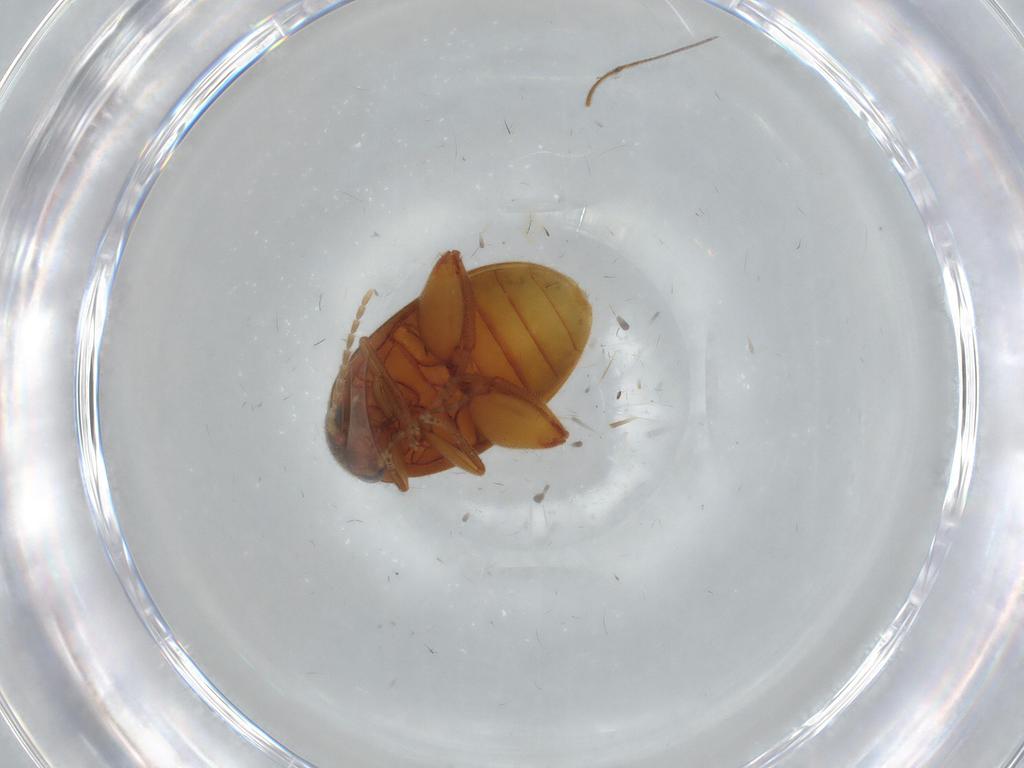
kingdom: Animalia
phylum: Arthropoda
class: Insecta
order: Coleoptera
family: Scirtidae
